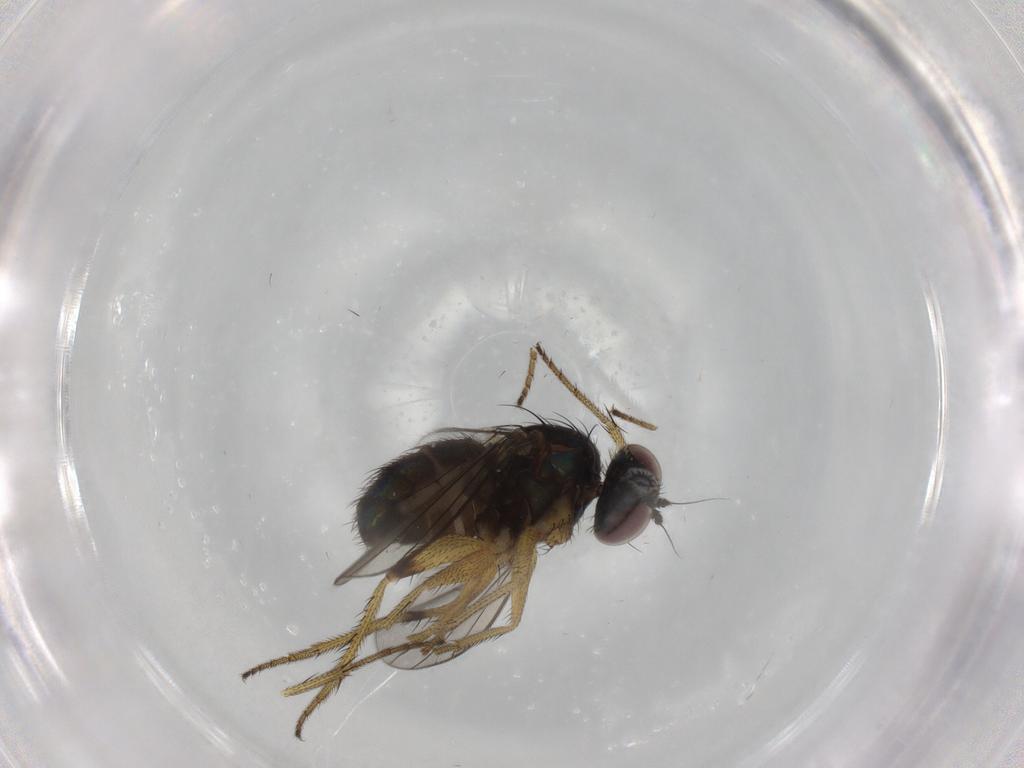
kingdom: Animalia
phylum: Arthropoda
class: Insecta
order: Diptera
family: Dolichopodidae
